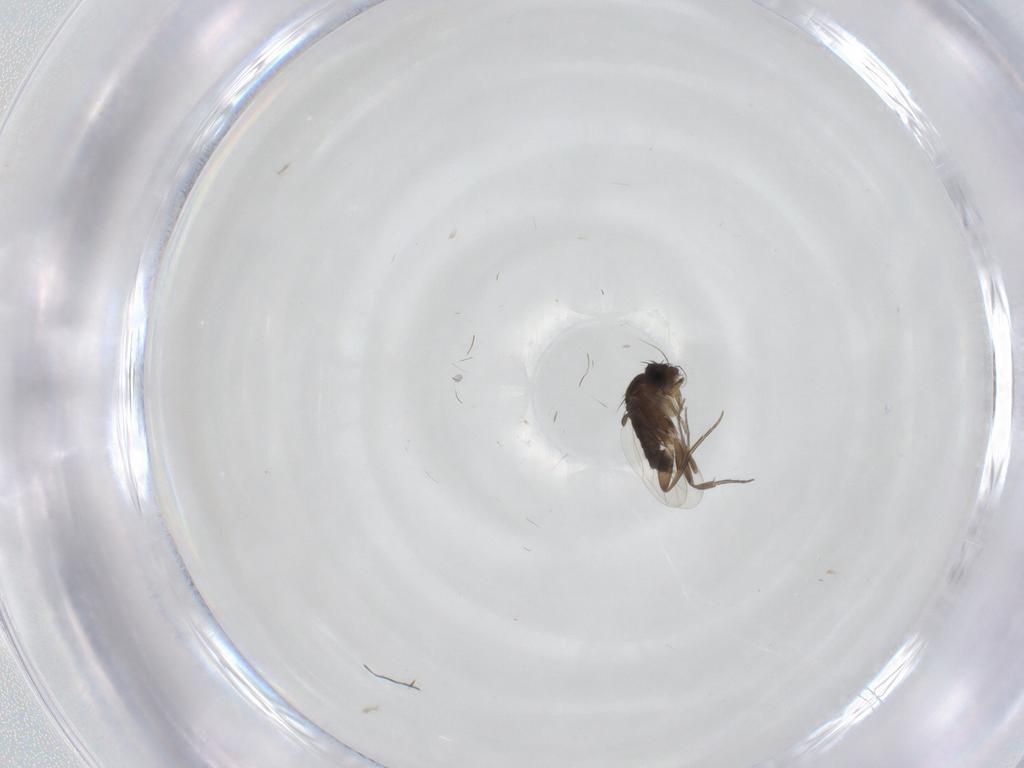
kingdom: Animalia
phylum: Arthropoda
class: Insecta
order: Diptera
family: Phoridae
